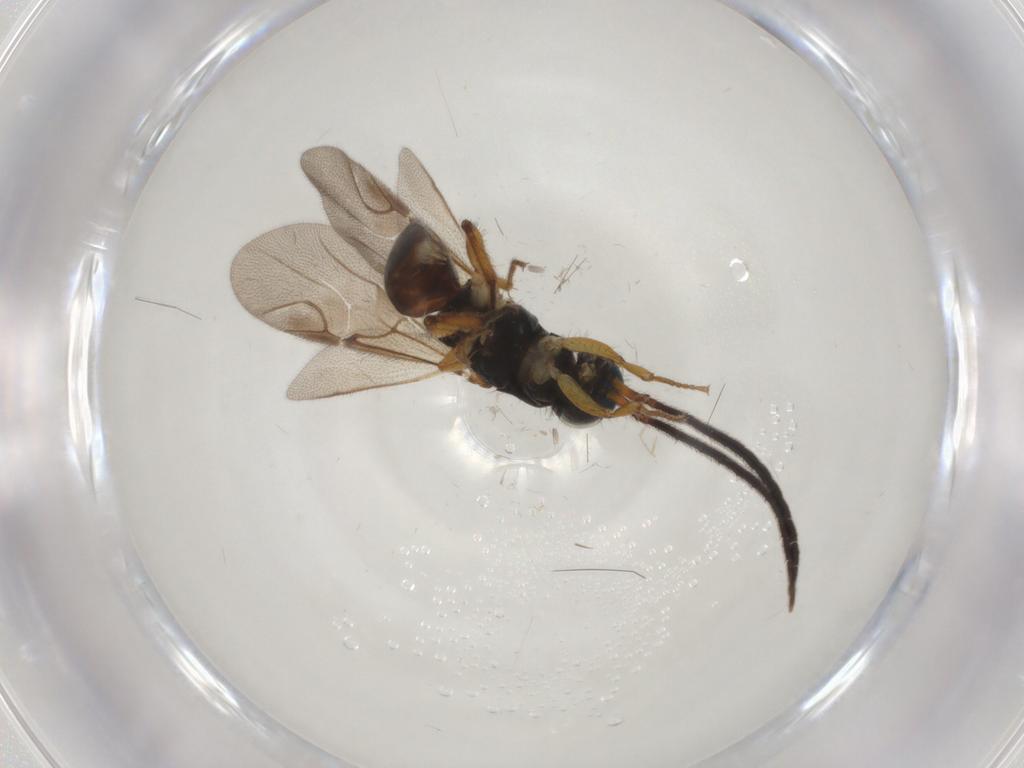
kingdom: Animalia
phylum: Arthropoda
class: Insecta
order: Hymenoptera
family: Chrysididae
